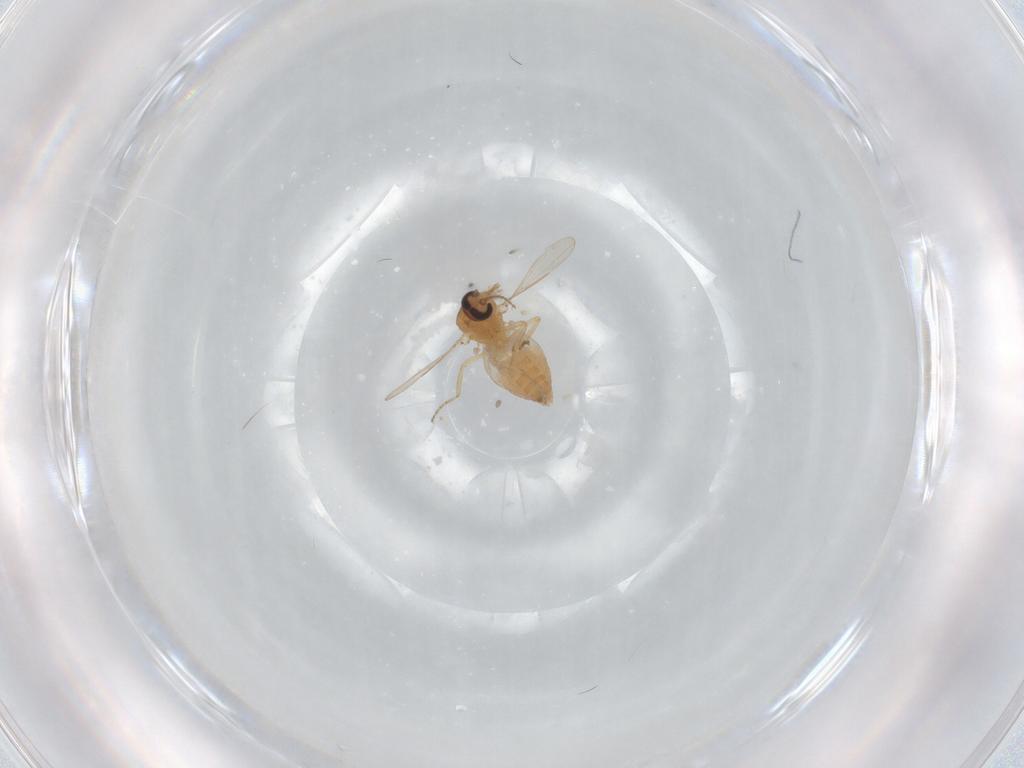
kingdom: Animalia
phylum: Arthropoda
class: Insecta
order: Diptera
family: Ceratopogonidae
